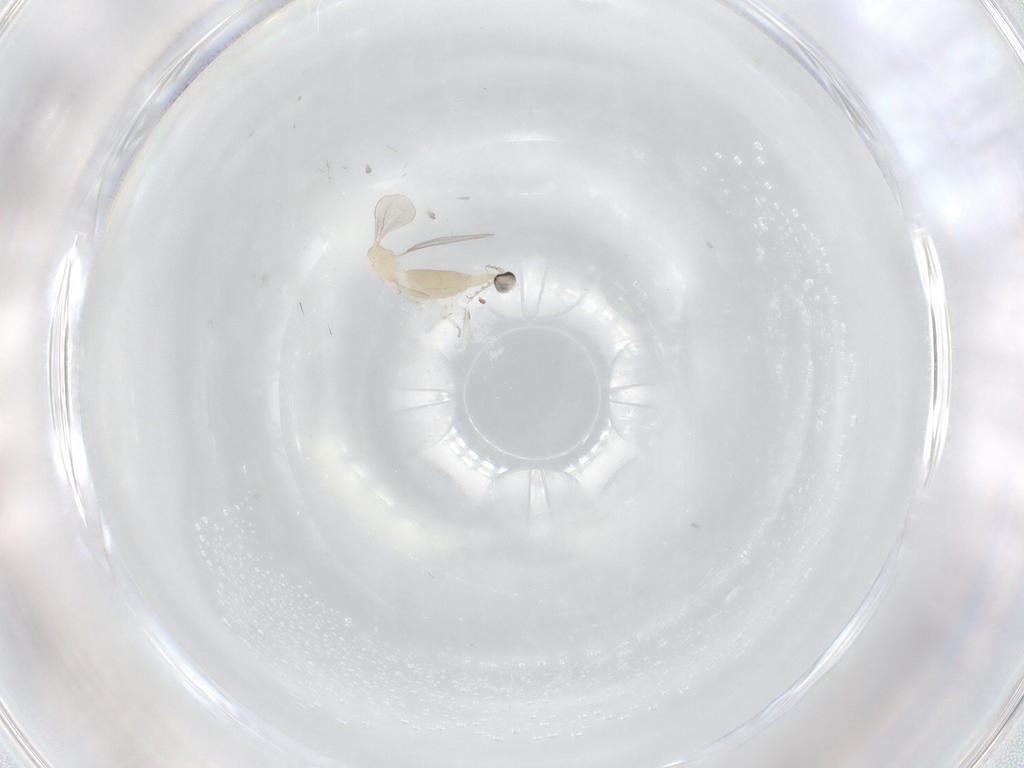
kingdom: Animalia
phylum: Arthropoda
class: Insecta
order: Diptera
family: Cecidomyiidae
